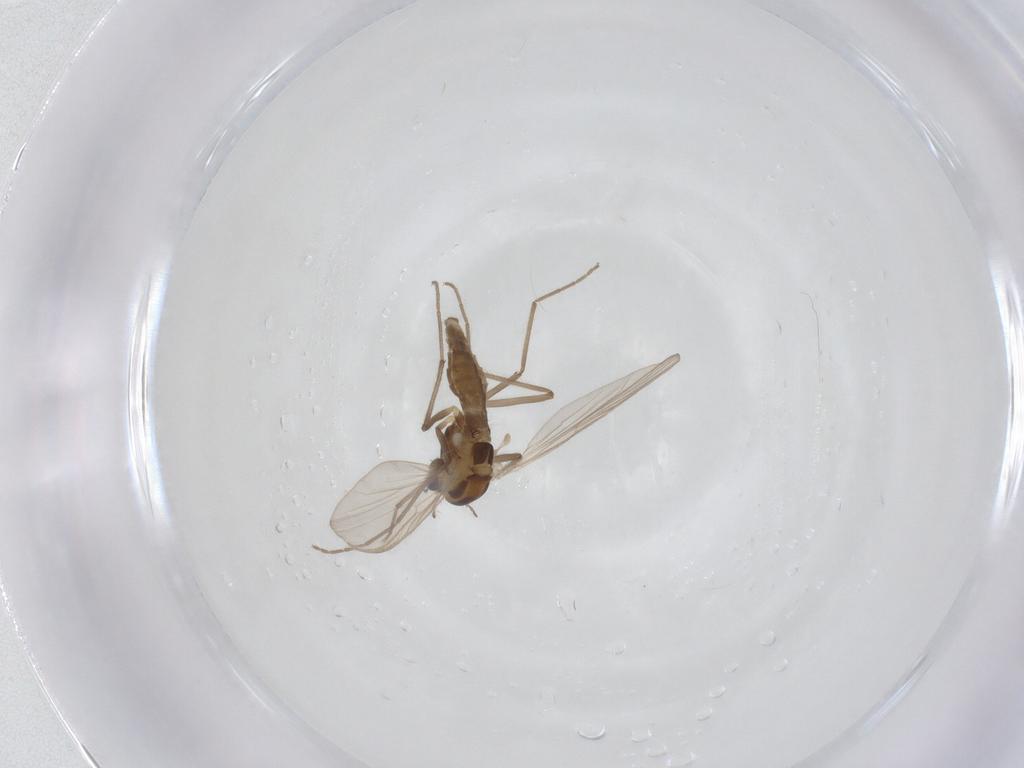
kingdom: Animalia
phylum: Arthropoda
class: Insecta
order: Diptera
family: Chironomidae
